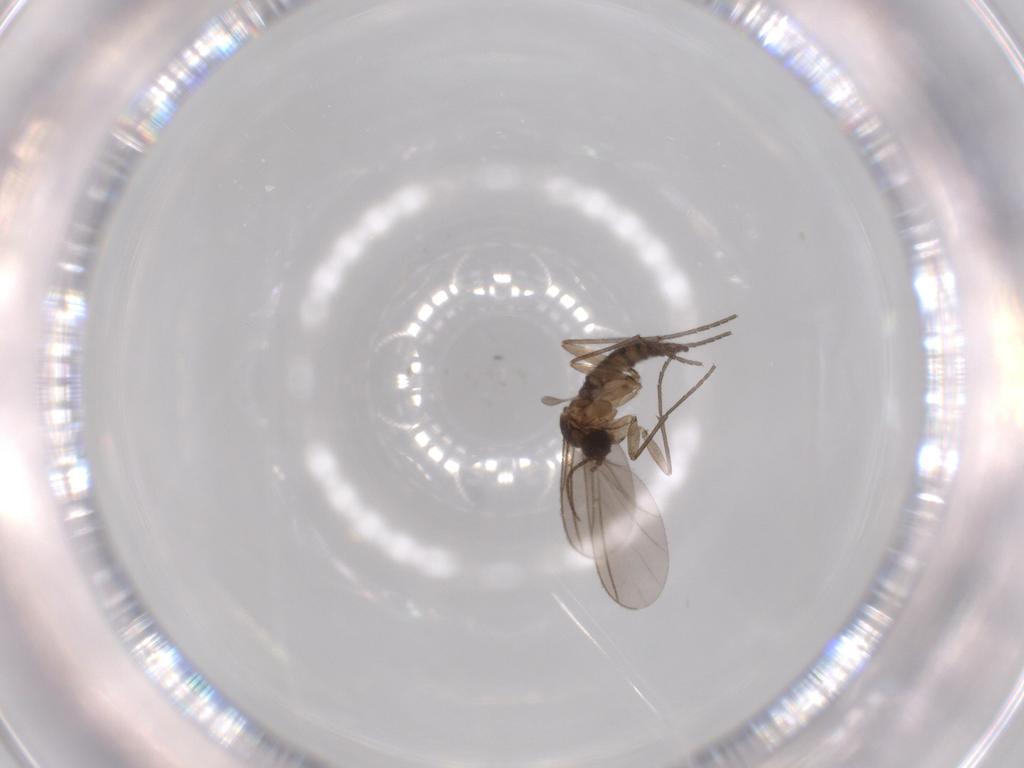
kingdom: Animalia
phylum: Arthropoda
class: Insecta
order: Diptera
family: Sciaridae
